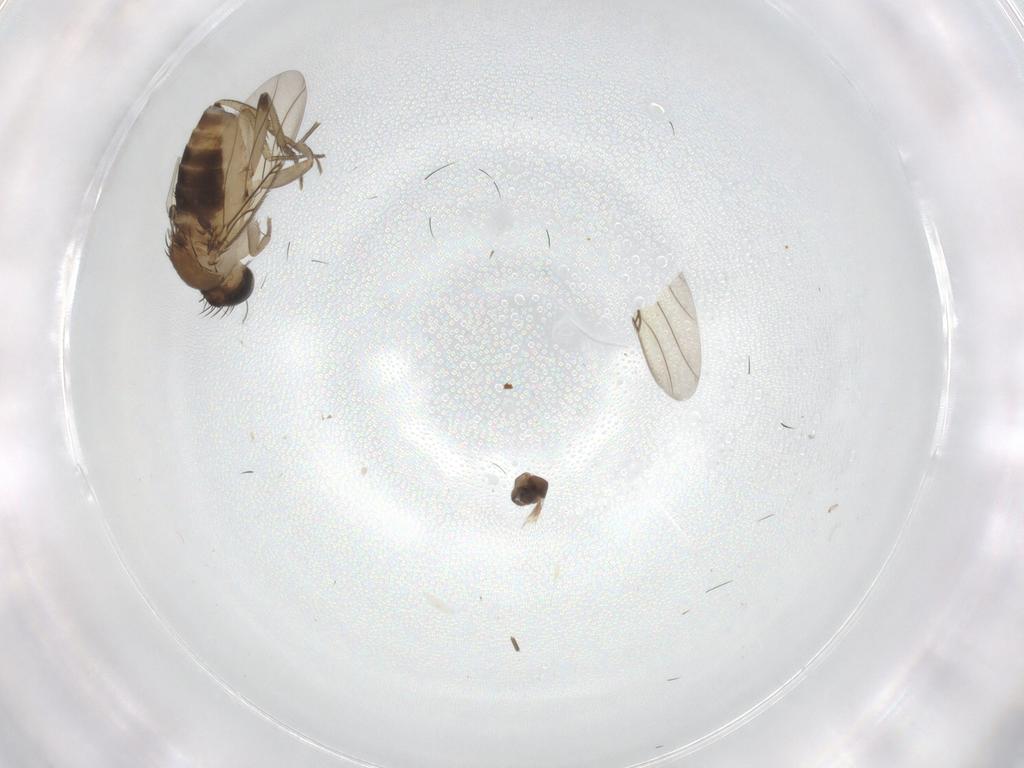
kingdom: Animalia
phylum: Arthropoda
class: Insecta
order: Diptera
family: Phoridae
